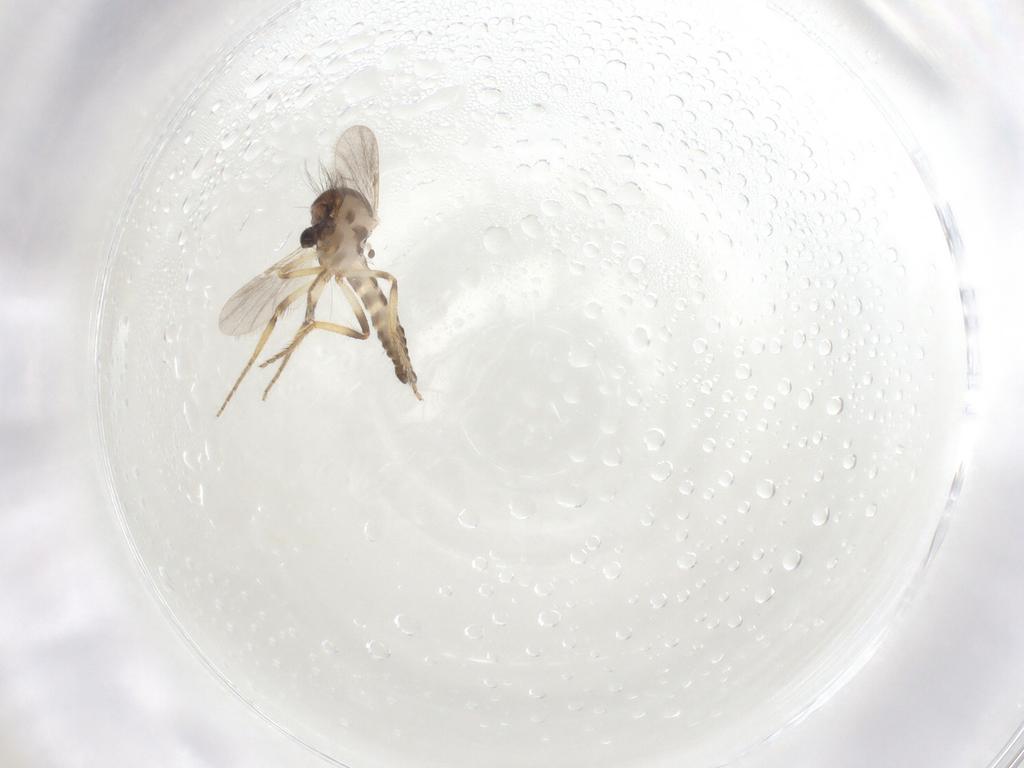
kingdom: Animalia
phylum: Arthropoda
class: Insecta
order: Diptera
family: Ceratopogonidae
